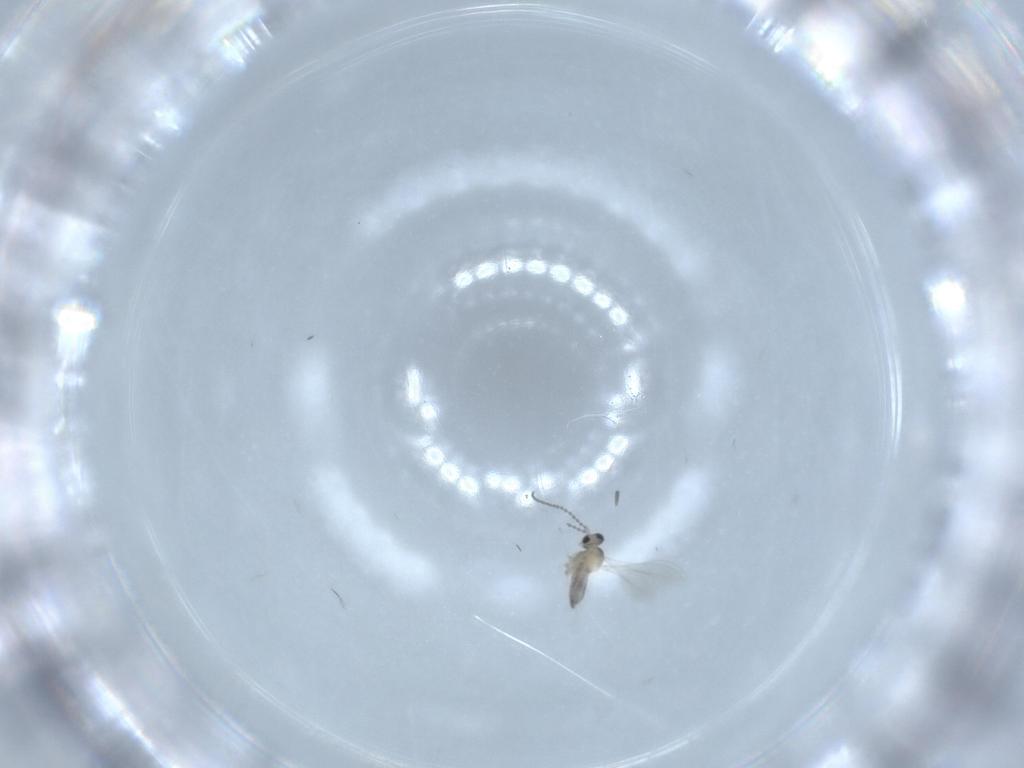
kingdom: Animalia
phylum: Arthropoda
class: Insecta
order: Diptera
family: Cecidomyiidae
